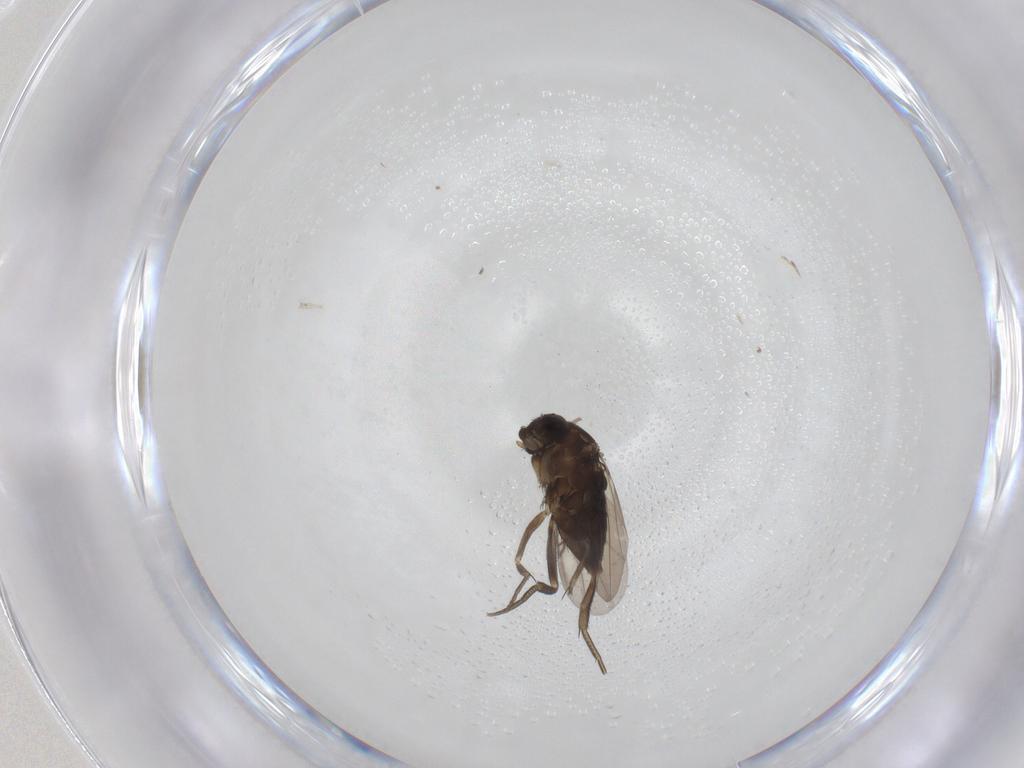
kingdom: Animalia
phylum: Arthropoda
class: Insecta
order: Diptera
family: Phoridae
